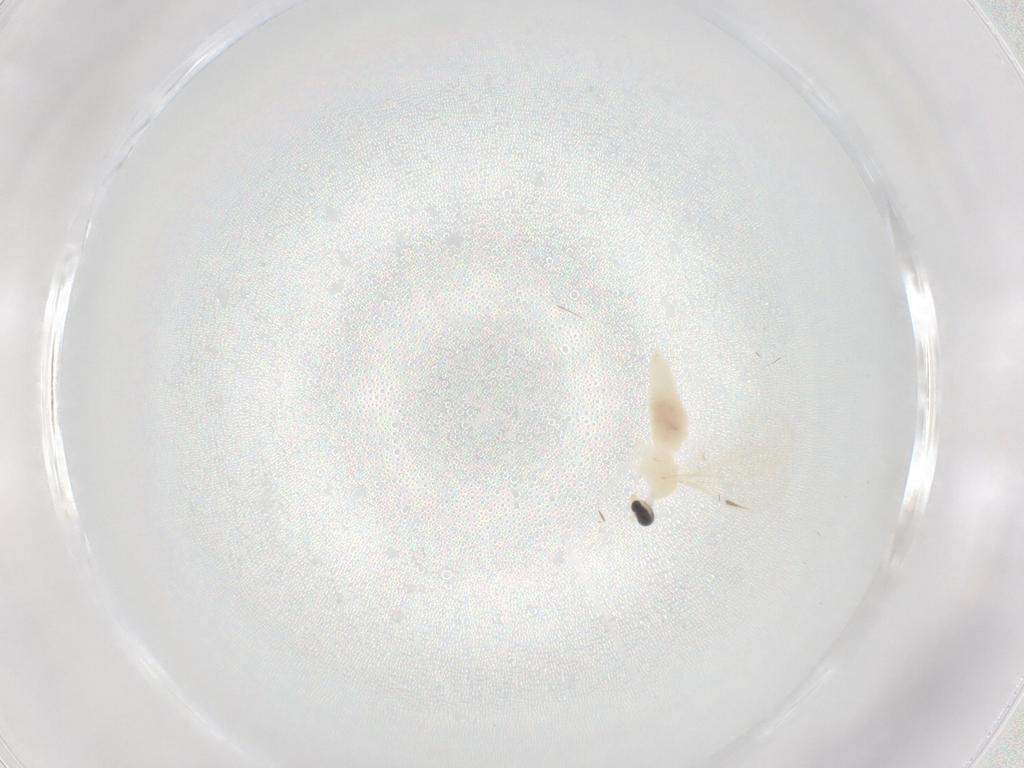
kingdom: Animalia
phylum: Arthropoda
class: Insecta
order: Diptera
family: Cecidomyiidae
